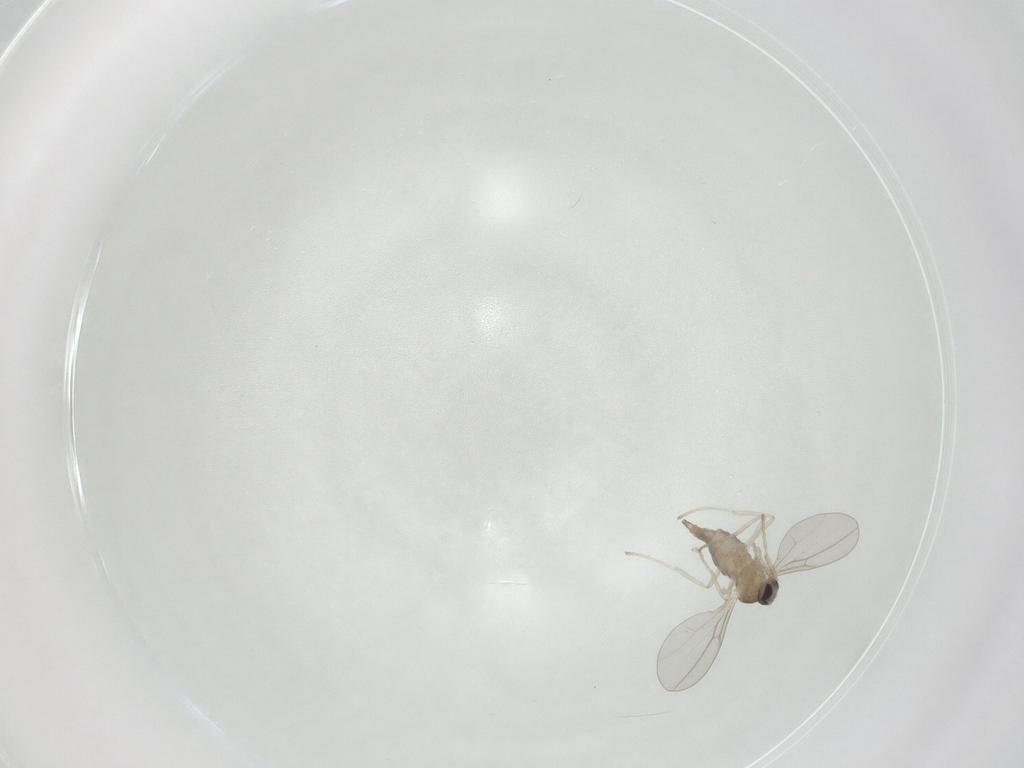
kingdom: Animalia
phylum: Arthropoda
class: Insecta
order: Diptera
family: Cecidomyiidae
